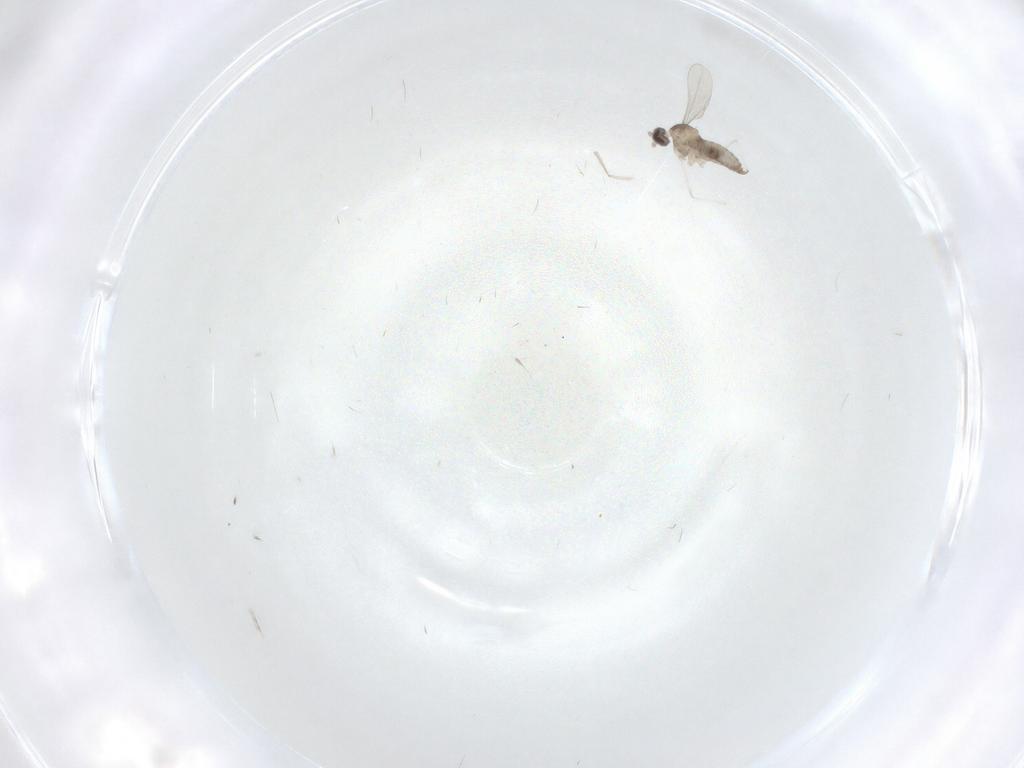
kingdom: Animalia
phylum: Arthropoda
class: Insecta
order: Diptera
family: Cecidomyiidae
